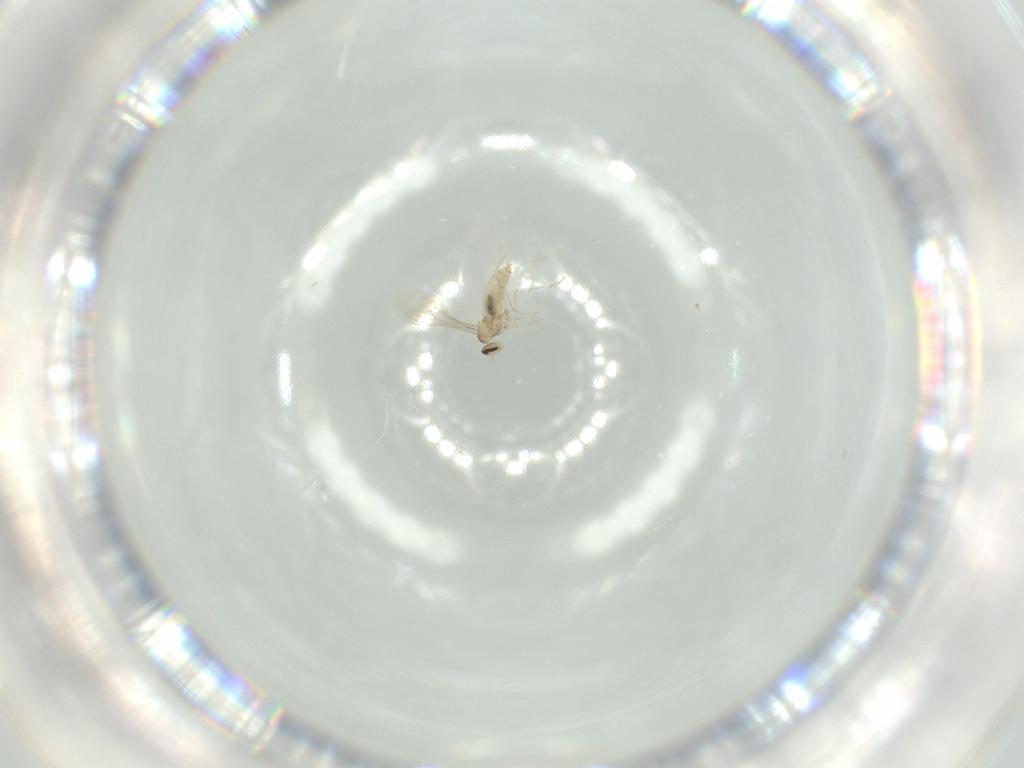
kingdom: Animalia
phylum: Arthropoda
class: Insecta
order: Diptera
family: Cecidomyiidae
